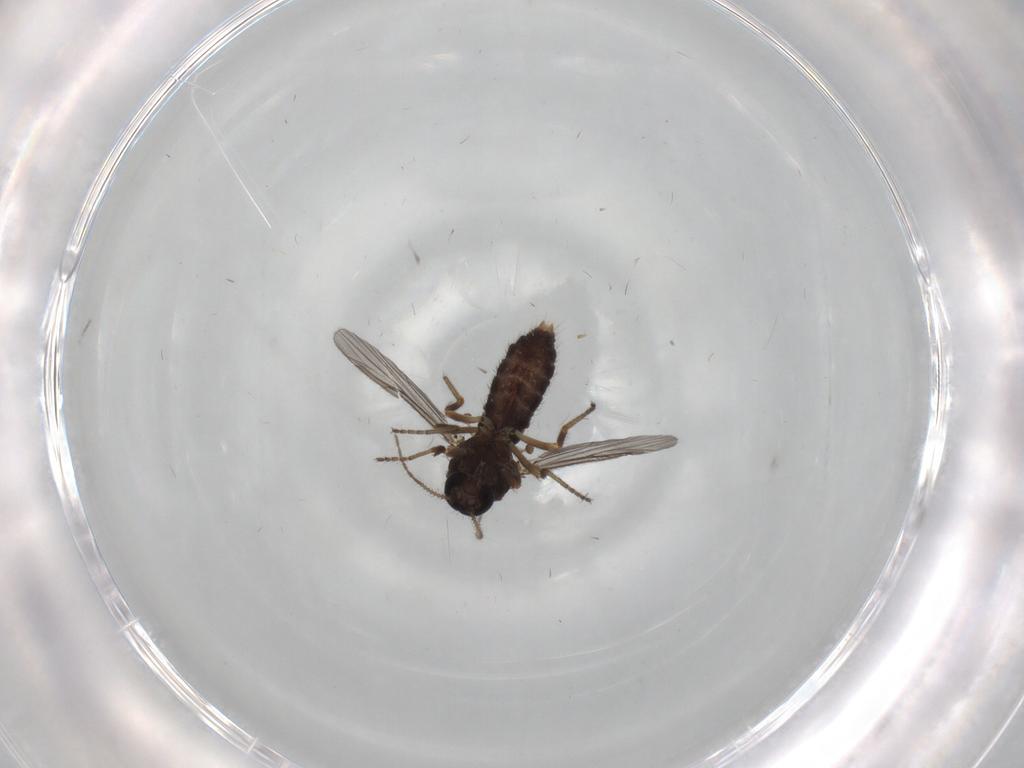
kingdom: Animalia
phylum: Arthropoda
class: Insecta
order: Diptera
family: Ceratopogonidae
